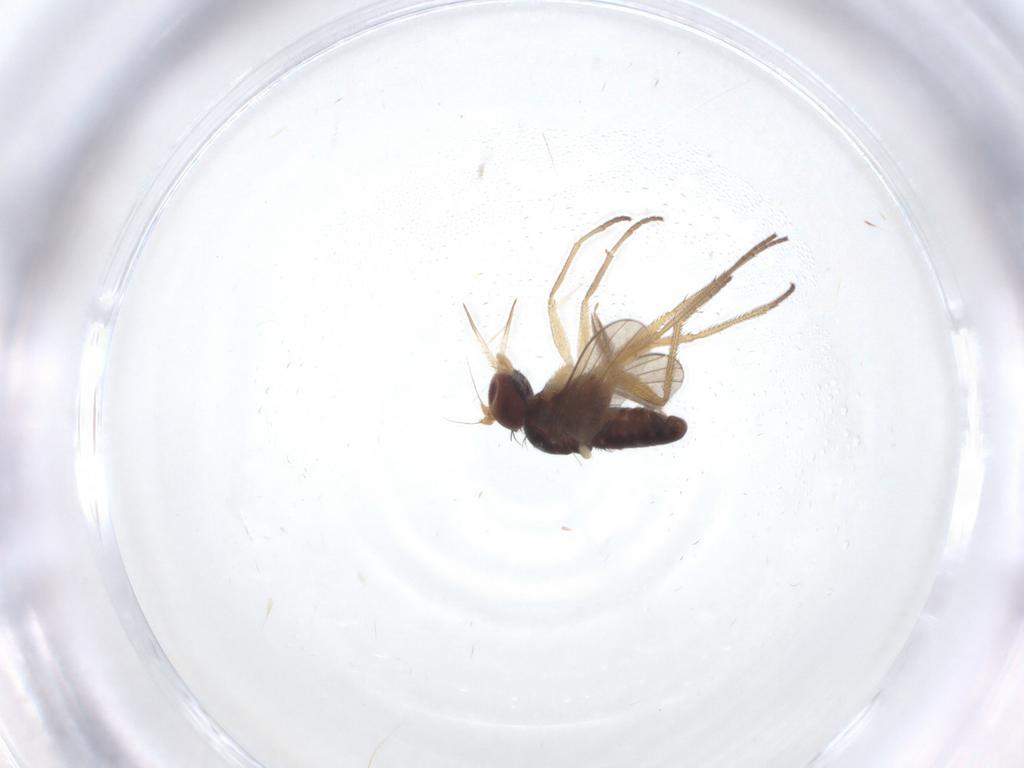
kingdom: Animalia
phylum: Arthropoda
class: Insecta
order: Diptera
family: Dolichopodidae
